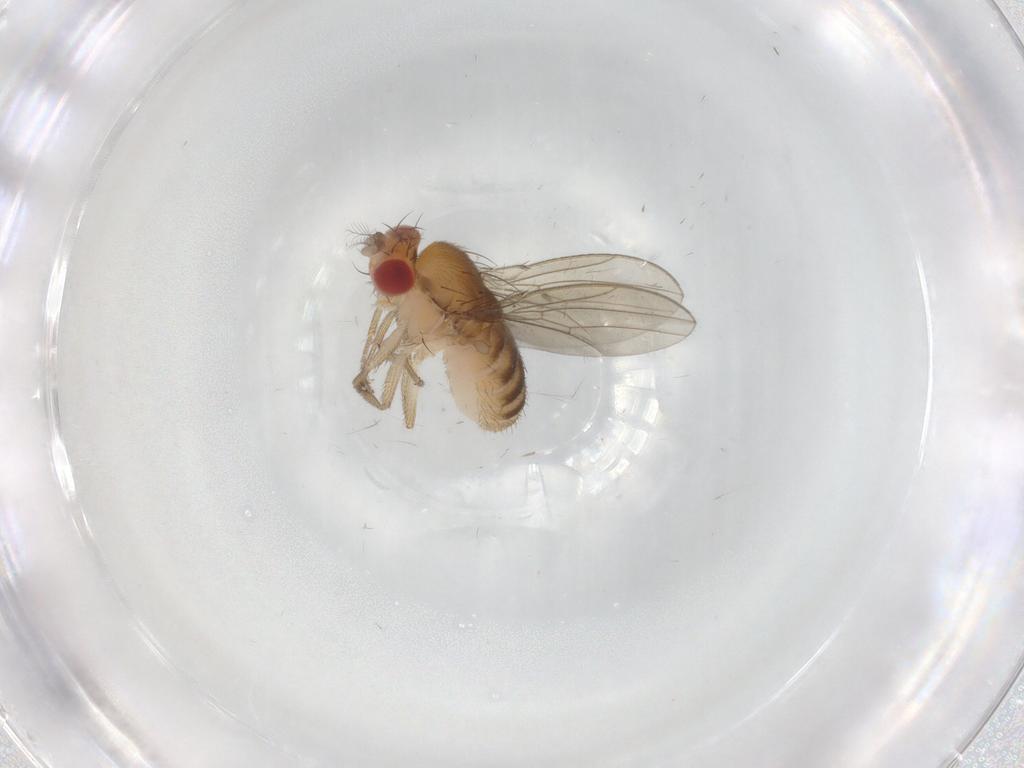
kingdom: Animalia
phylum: Arthropoda
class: Insecta
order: Diptera
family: Drosophilidae
